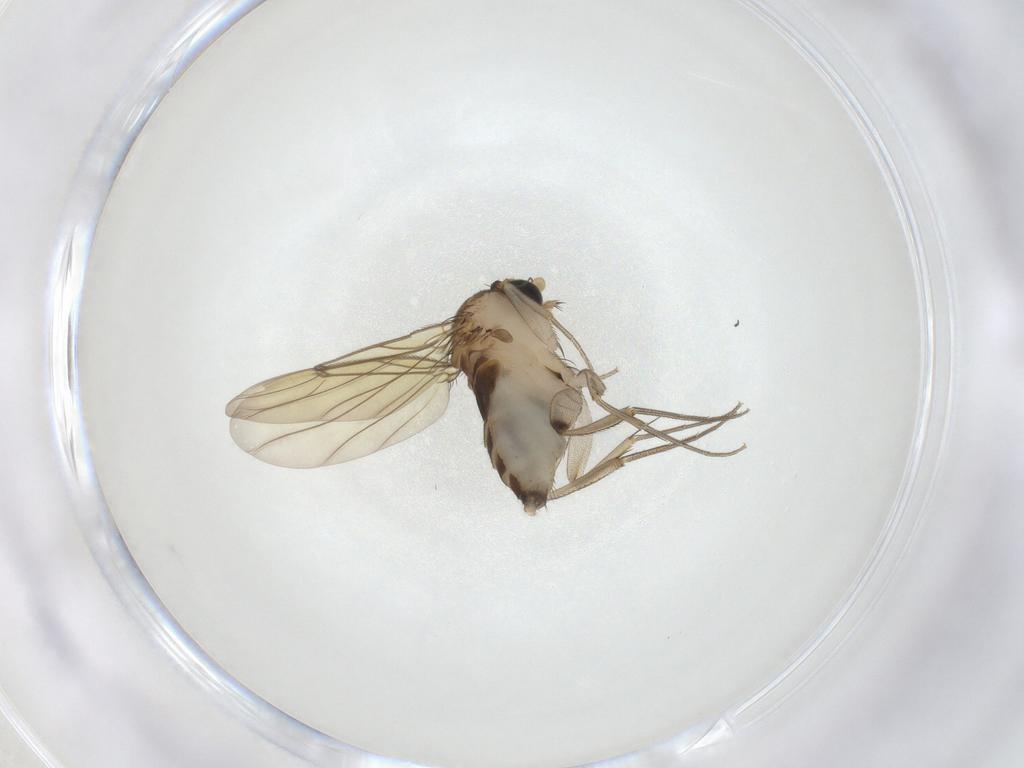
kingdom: Animalia
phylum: Arthropoda
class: Insecta
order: Diptera
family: Phoridae
